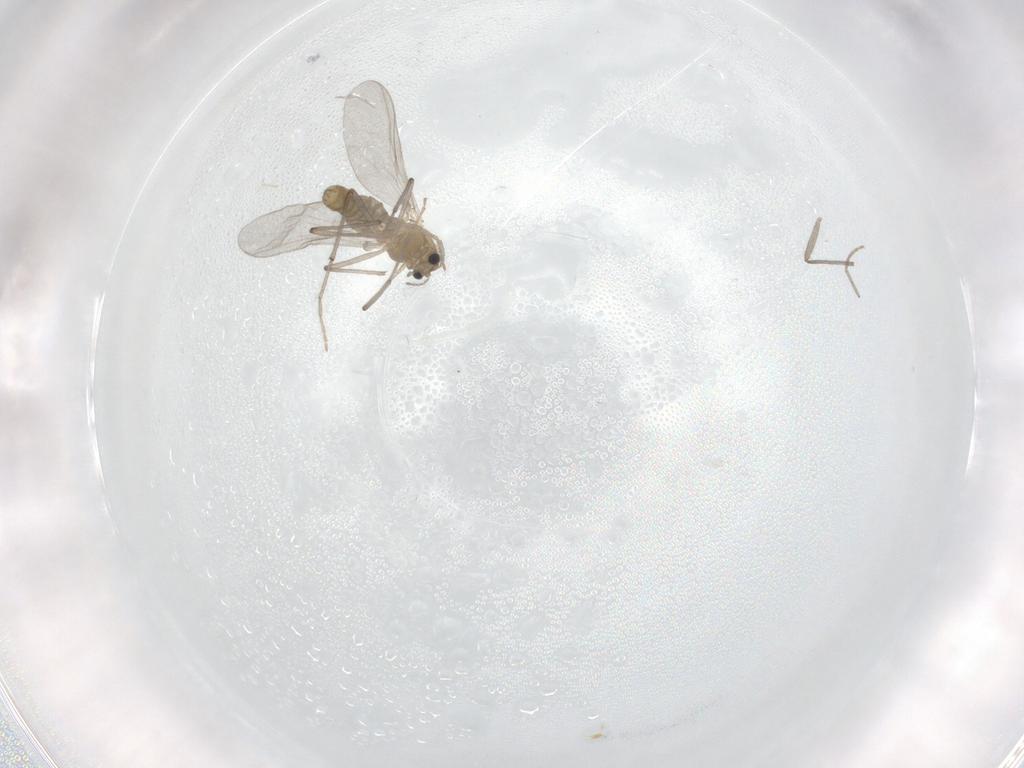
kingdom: Animalia
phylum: Arthropoda
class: Insecta
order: Diptera
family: Chironomidae
